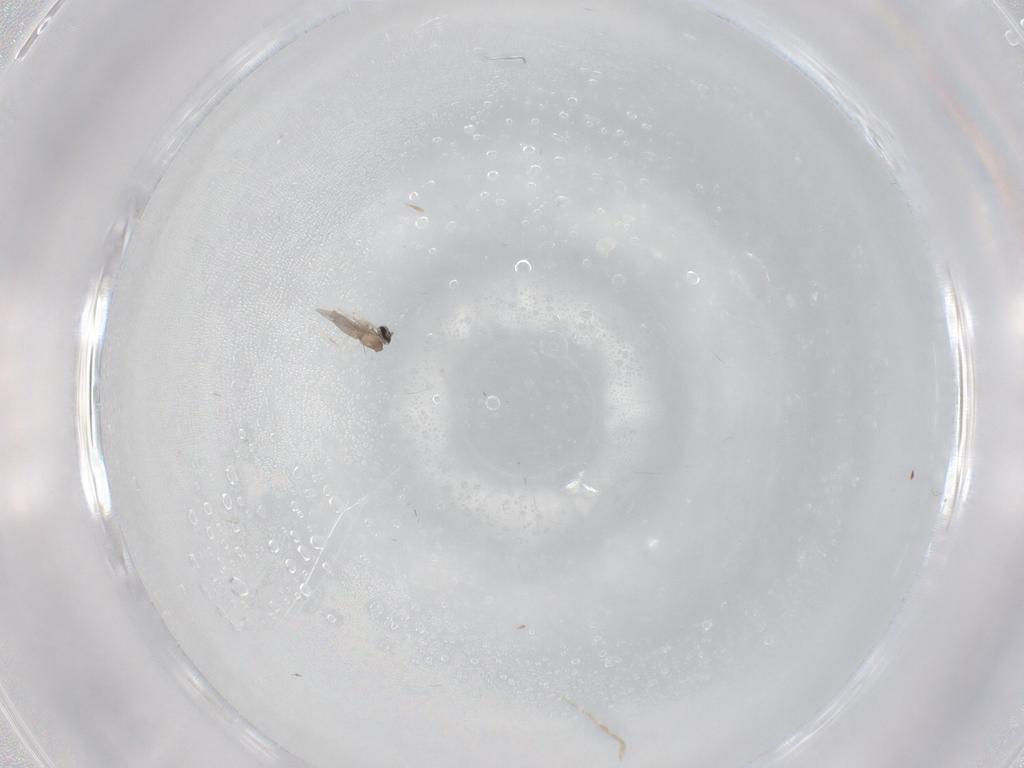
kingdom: Animalia
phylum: Arthropoda
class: Insecta
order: Diptera
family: Cecidomyiidae
